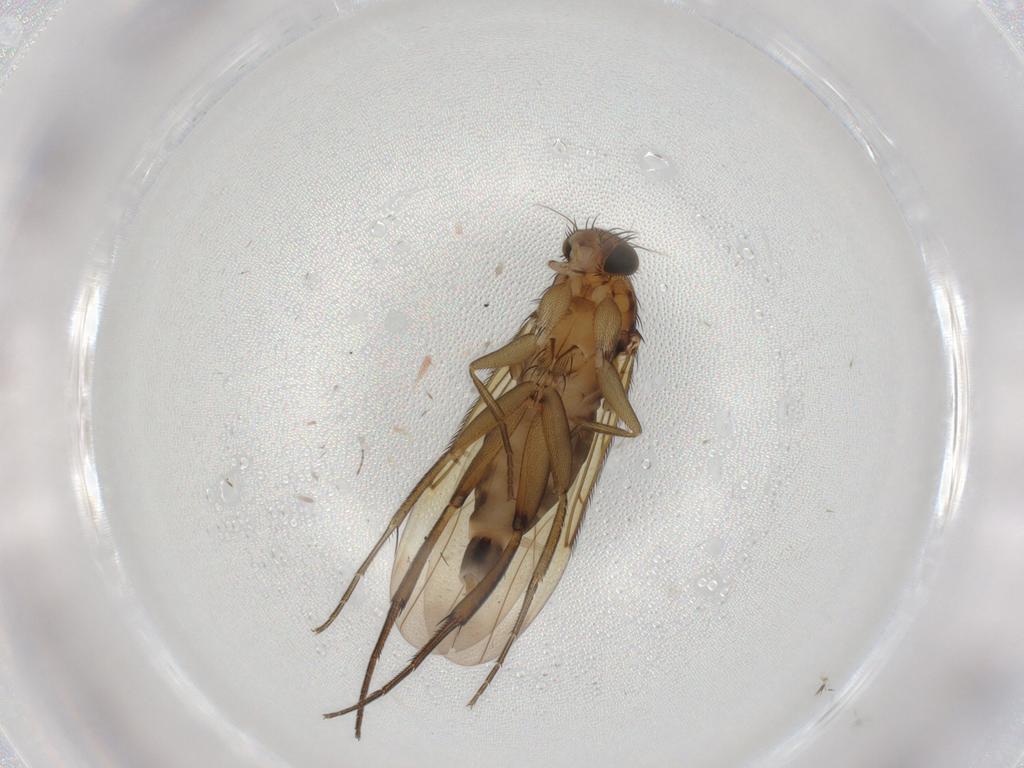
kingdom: Animalia
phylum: Arthropoda
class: Insecta
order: Diptera
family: Phoridae
